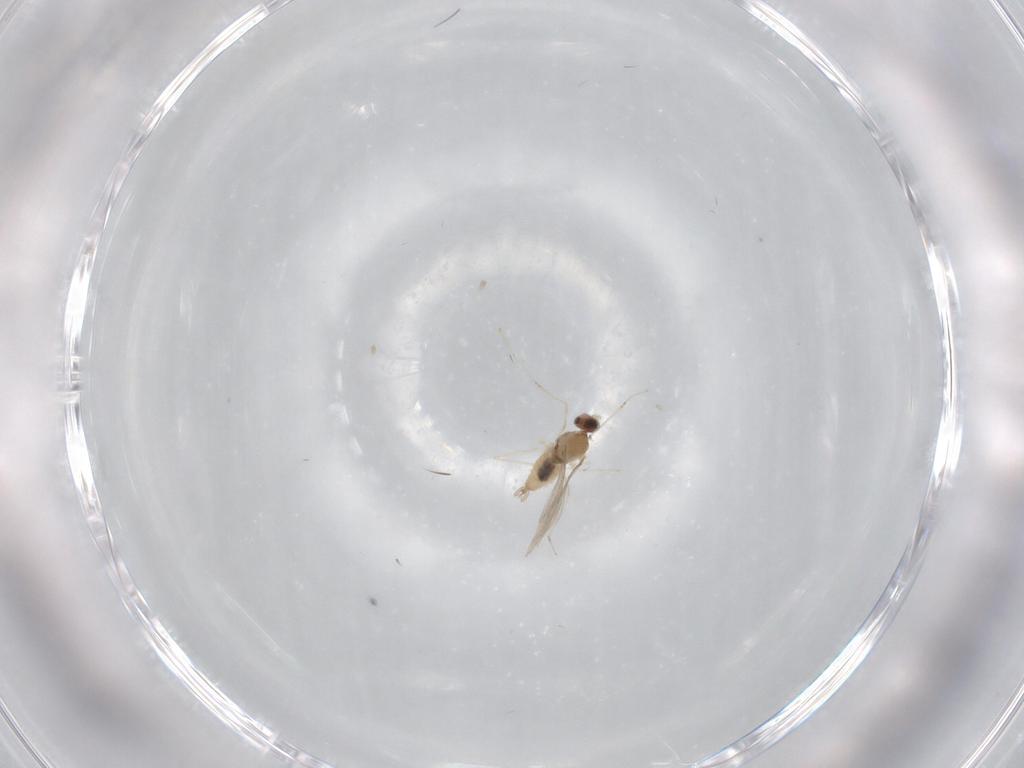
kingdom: Animalia
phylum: Arthropoda
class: Insecta
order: Diptera
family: Cecidomyiidae
